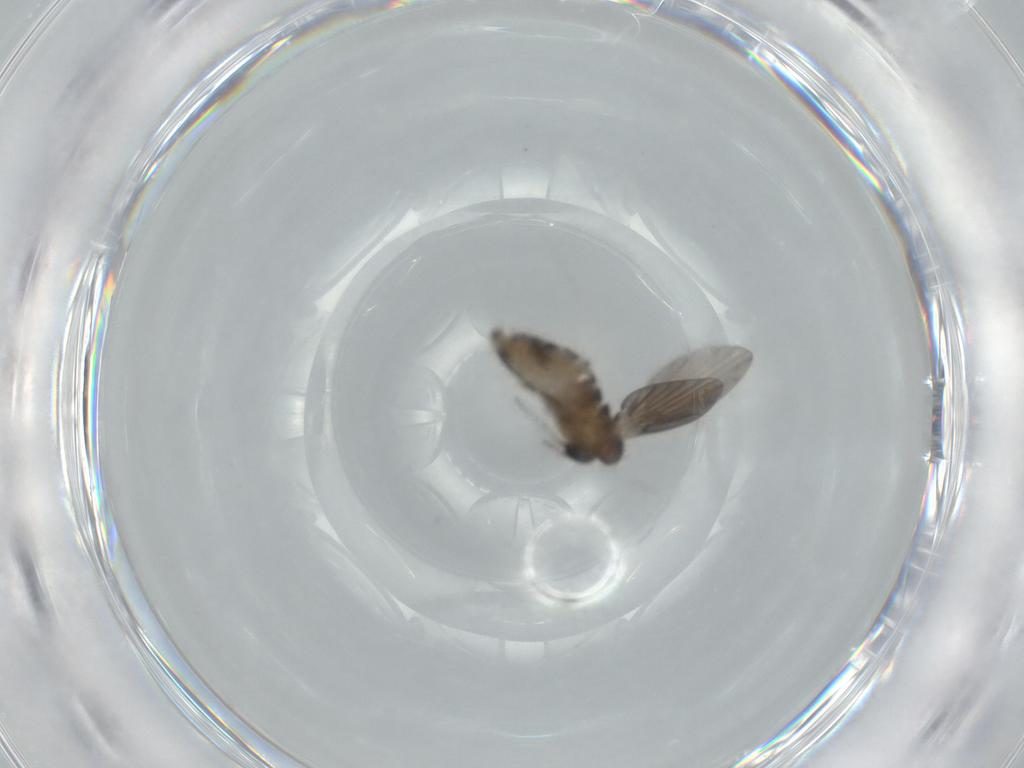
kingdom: Animalia
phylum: Arthropoda
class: Insecta
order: Diptera
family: Psychodidae
